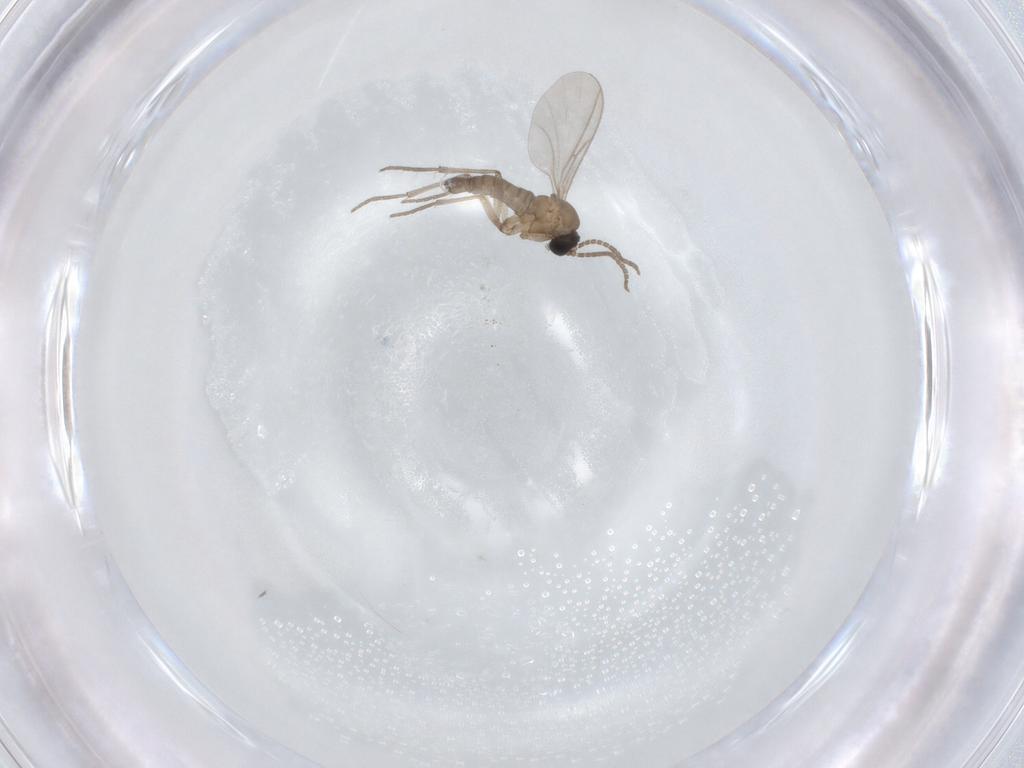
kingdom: Animalia
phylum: Arthropoda
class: Insecta
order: Diptera
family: Sciaridae
